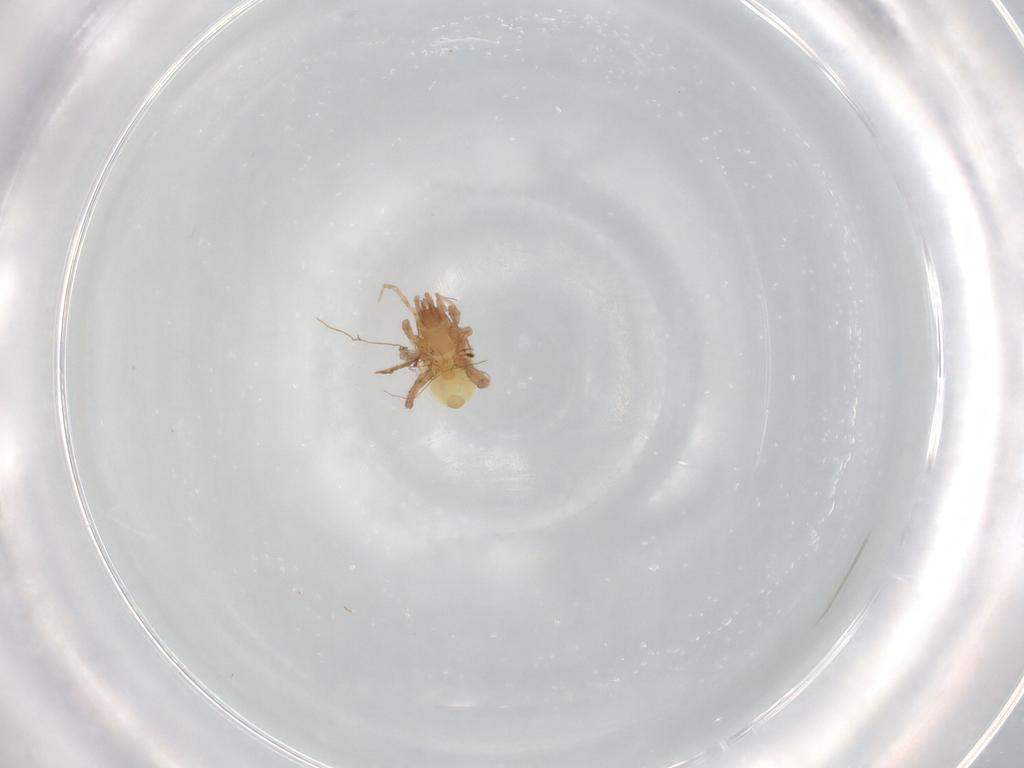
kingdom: Animalia
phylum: Arthropoda
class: Arachnida
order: Mesostigmata
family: Arctacaridae
